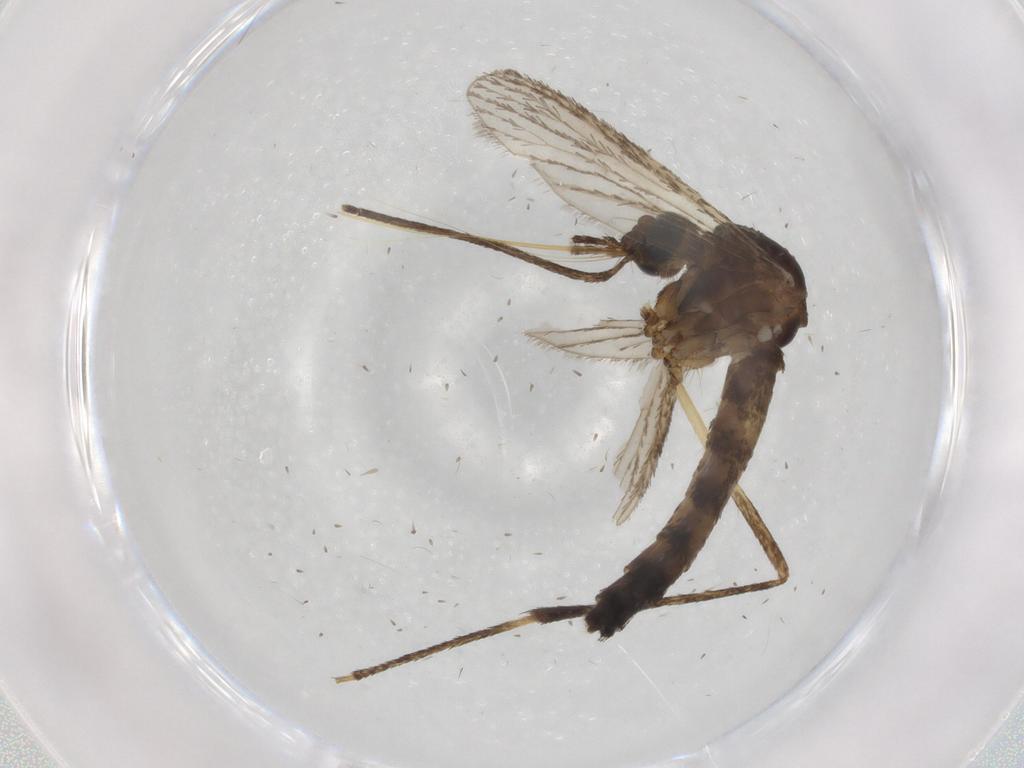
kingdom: Animalia
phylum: Arthropoda
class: Insecta
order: Diptera
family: Phoridae
